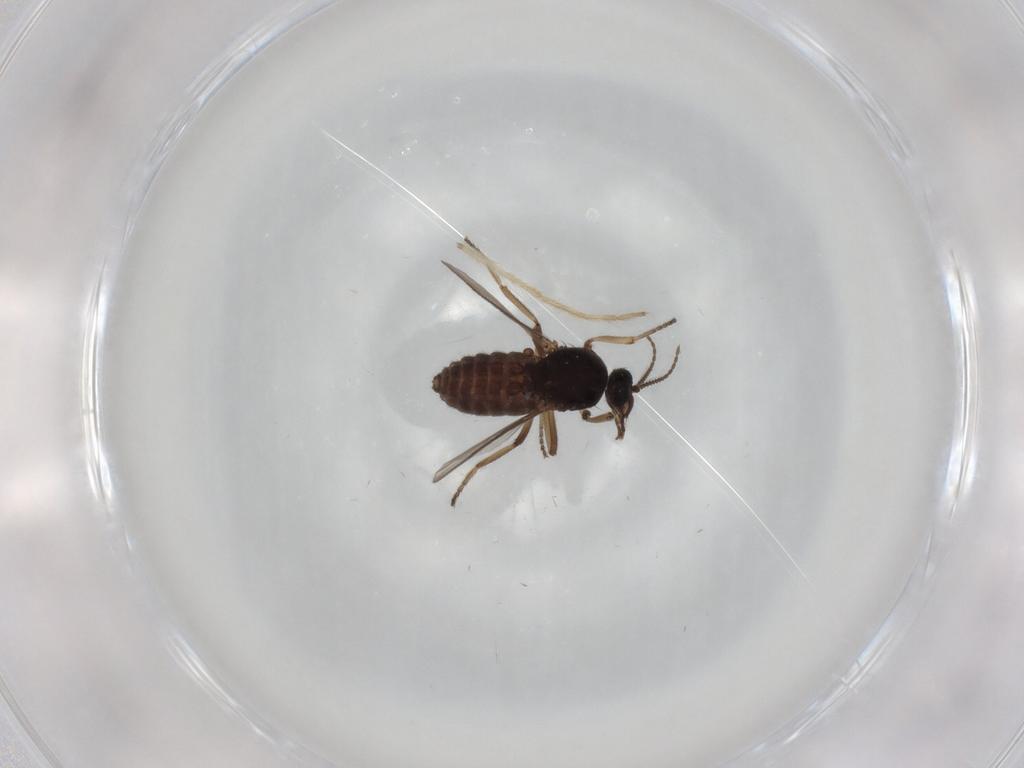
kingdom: Animalia
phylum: Arthropoda
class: Insecta
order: Diptera
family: Ceratopogonidae
